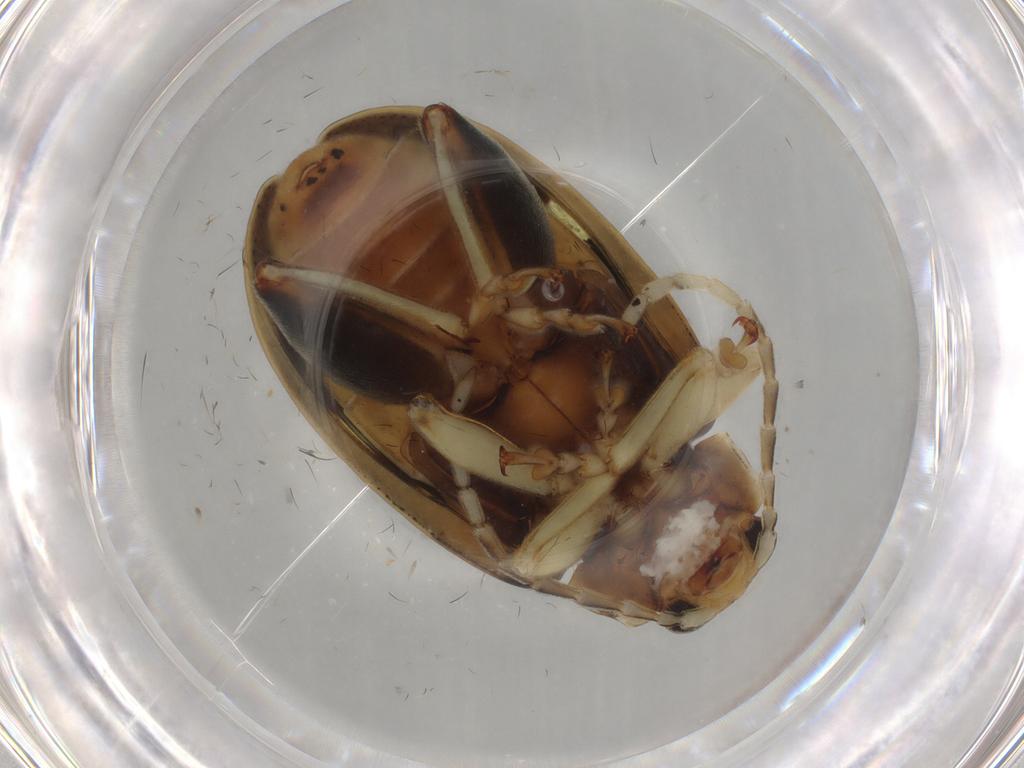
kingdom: Animalia
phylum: Arthropoda
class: Insecta
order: Coleoptera
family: Chrysomelidae
